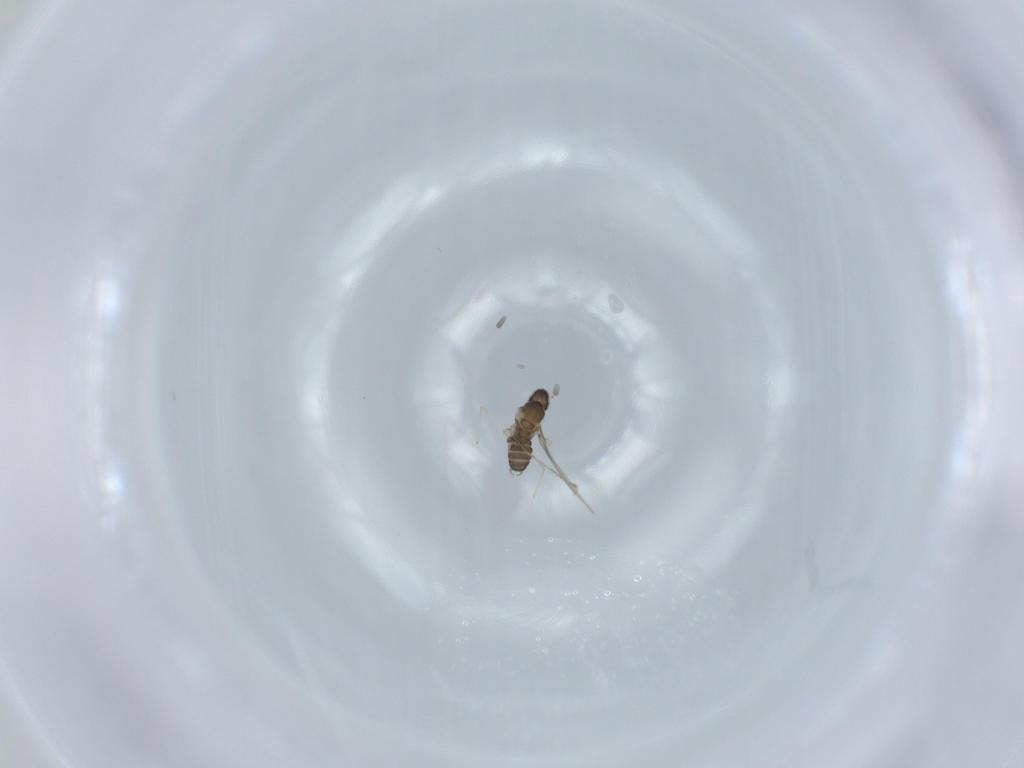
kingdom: Animalia
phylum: Arthropoda
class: Insecta
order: Diptera
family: Cecidomyiidae
